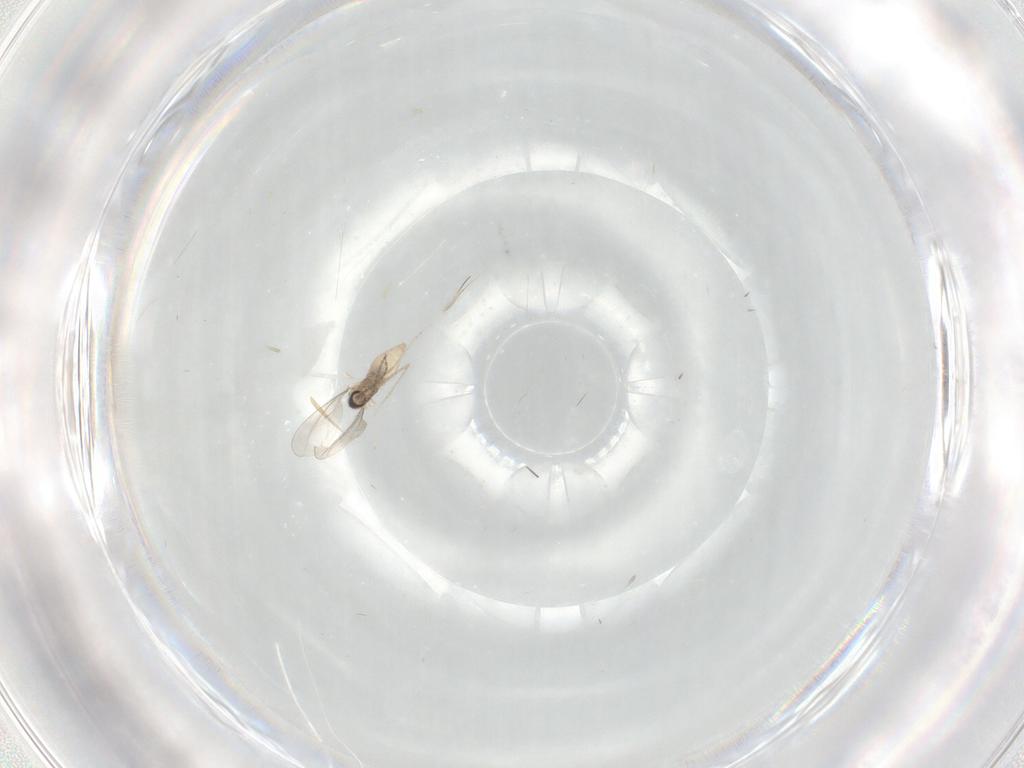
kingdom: Animalia
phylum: Arthropoda
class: Insecta
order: Diptera
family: Cecidomyiidae
